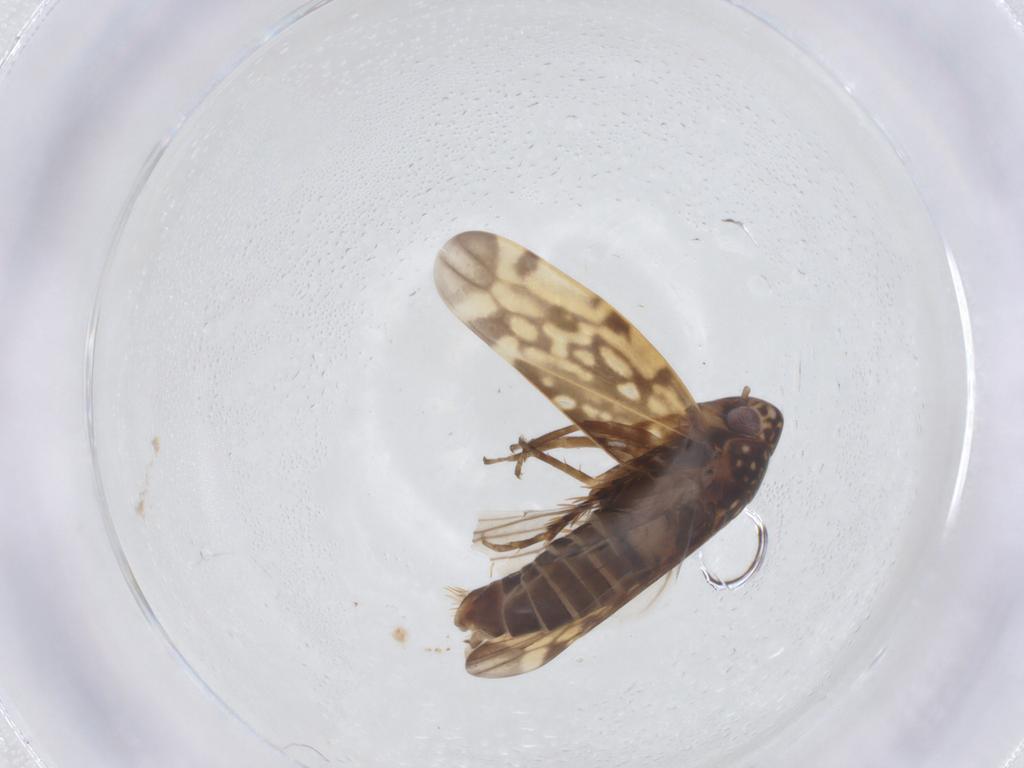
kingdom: Animalia
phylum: Arthropoda
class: Insecta
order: Hemiptera
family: Cicadellidae
